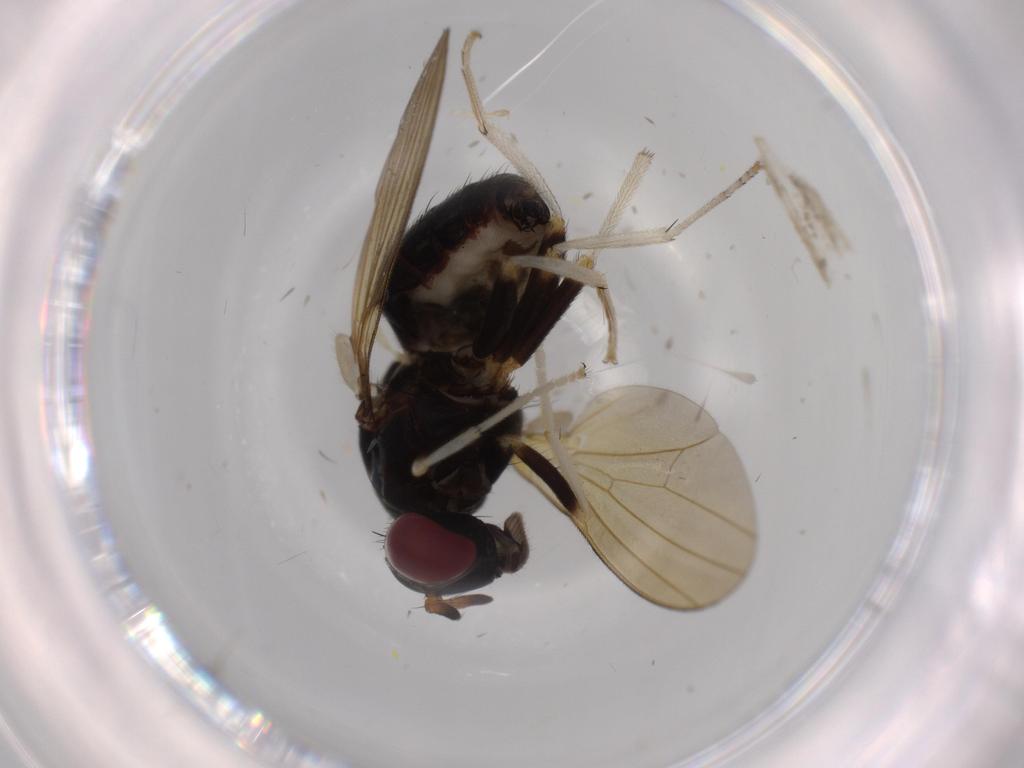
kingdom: Animalia
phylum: Arthropoda
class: Insecta
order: Diptera
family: Lauxaniidae
